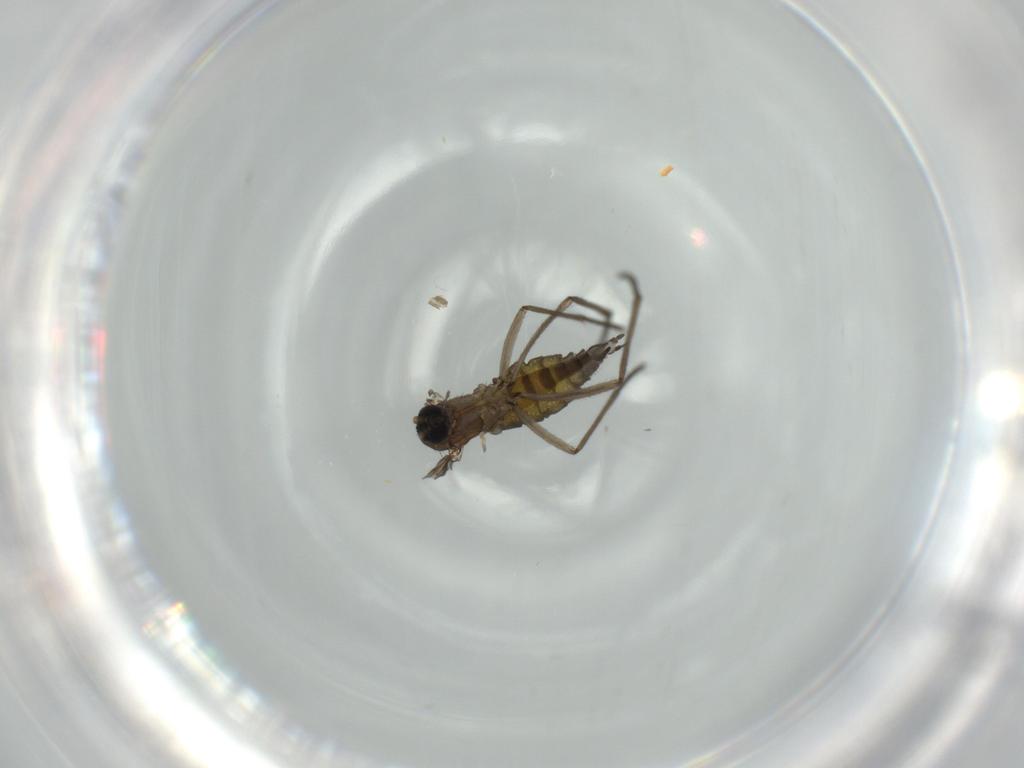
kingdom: Animalia
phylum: Arthropoda
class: Insecta
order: Diptera
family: Sciaridae
